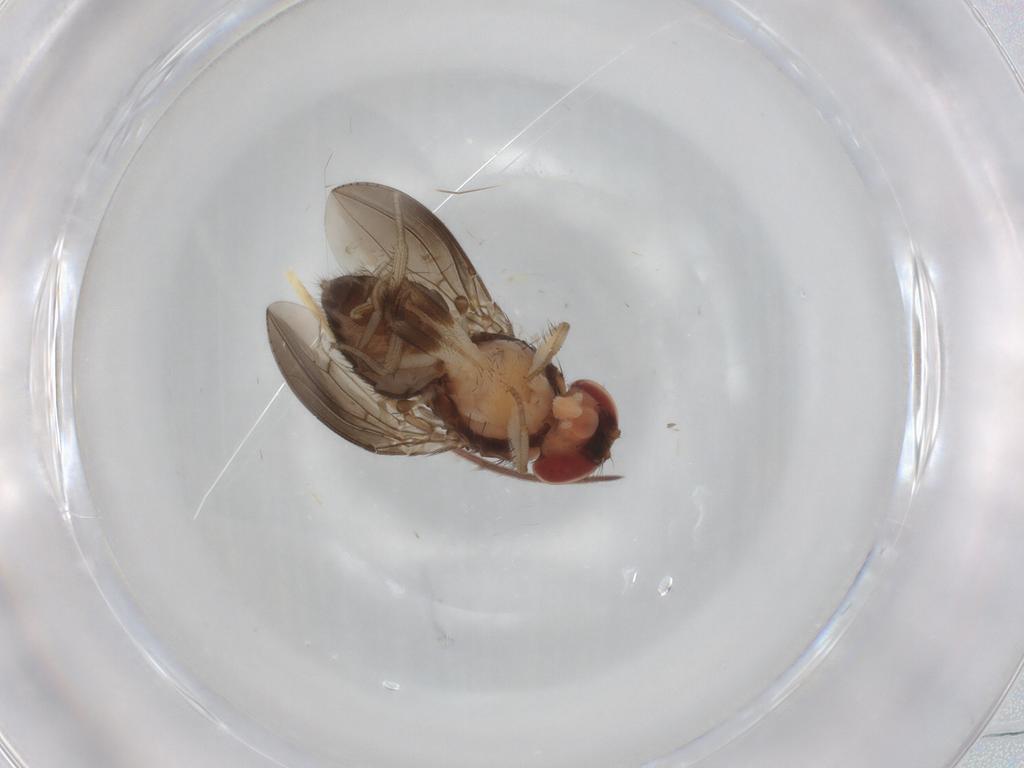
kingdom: Animalia
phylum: Arthropoda
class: Insecta
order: Diptera
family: Drosophilidae
